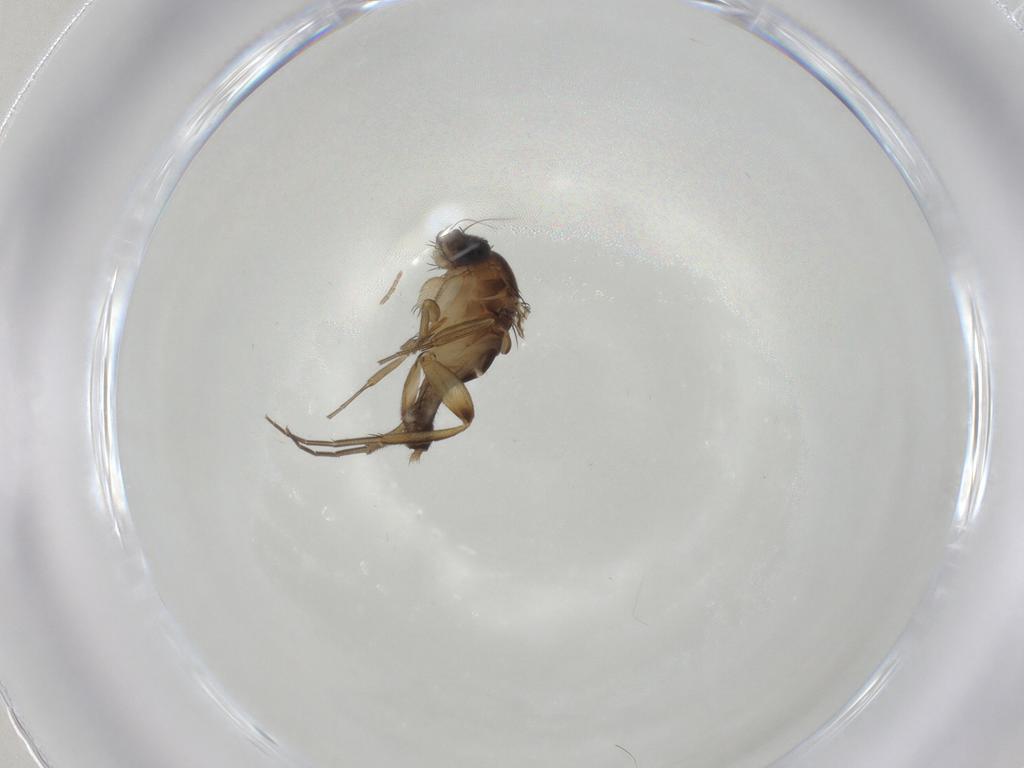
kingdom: Animalia
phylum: Arthropoda
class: Insecta
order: Diptera
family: Phoridae
